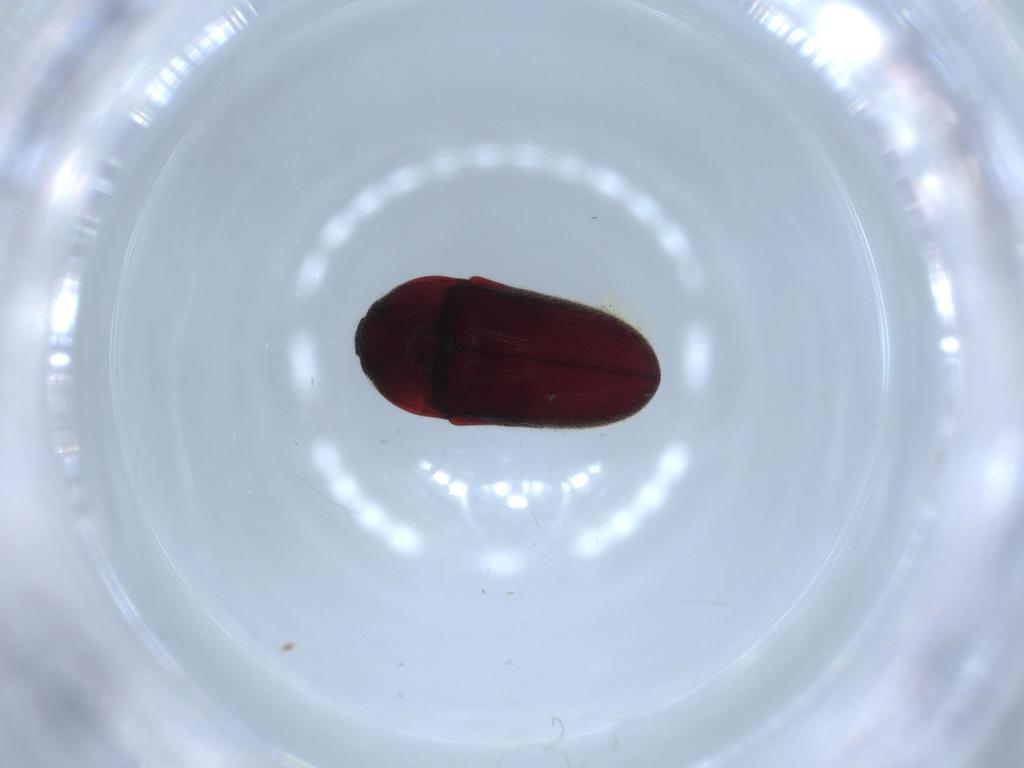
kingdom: Animalia
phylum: Arthropoda
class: Insecta
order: Coleoptera
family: Throscidae
